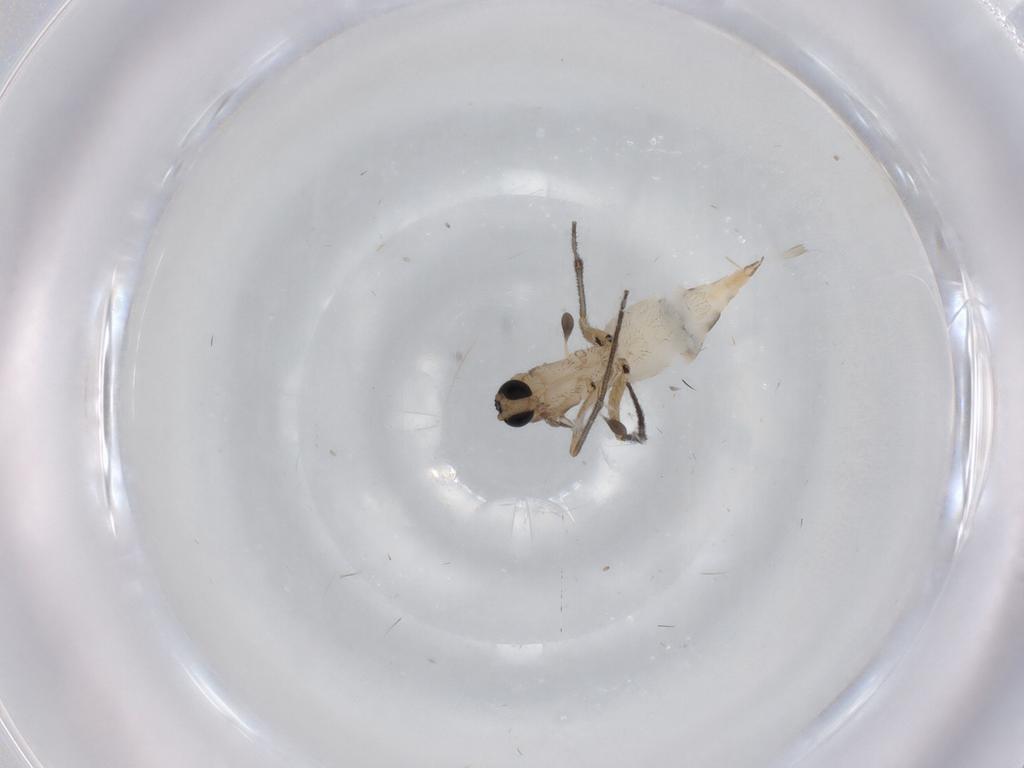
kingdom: Animalia
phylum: Arthropoda
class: Insecta
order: Diptera
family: Sciaridae
